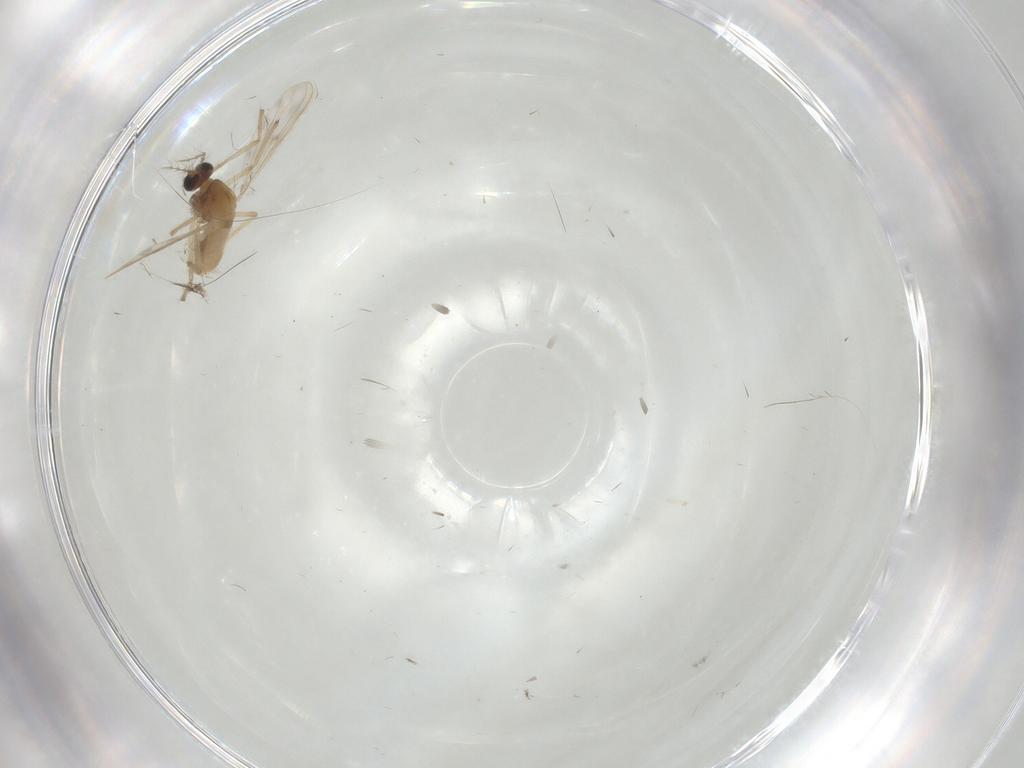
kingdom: Animalia
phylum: Arthropoda
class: Insecta
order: Diptera
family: Chironomidae
